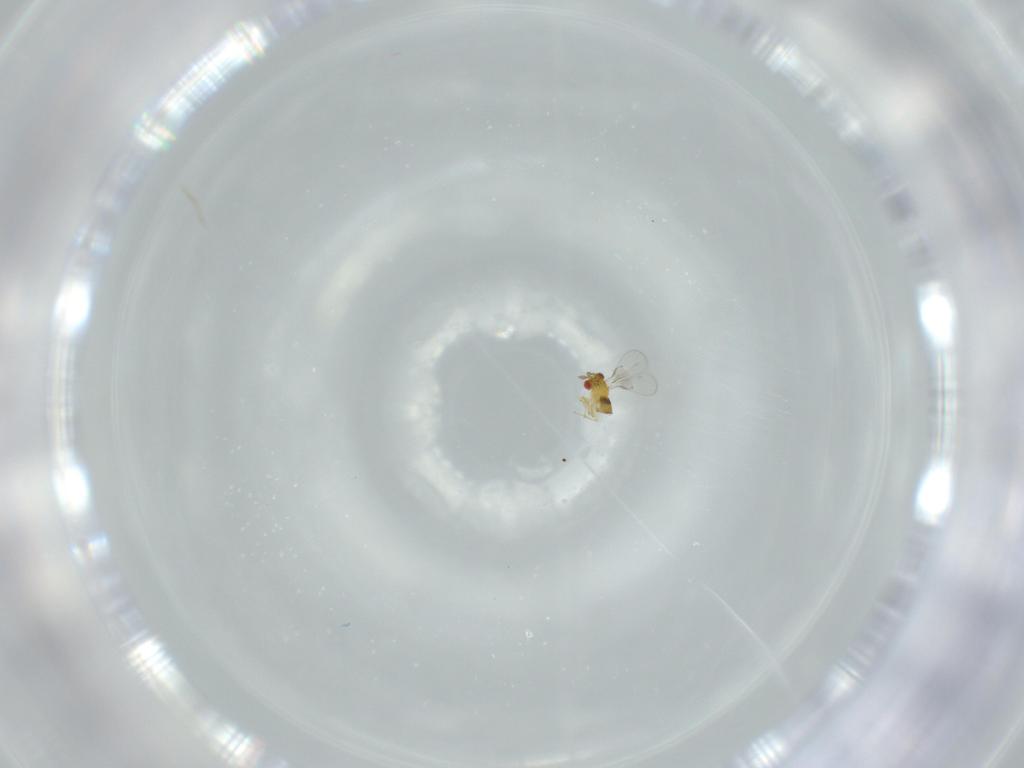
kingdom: Animalia
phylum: Arthropoda
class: Insecta
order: Hymenoptera
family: Trichogrammatidae
